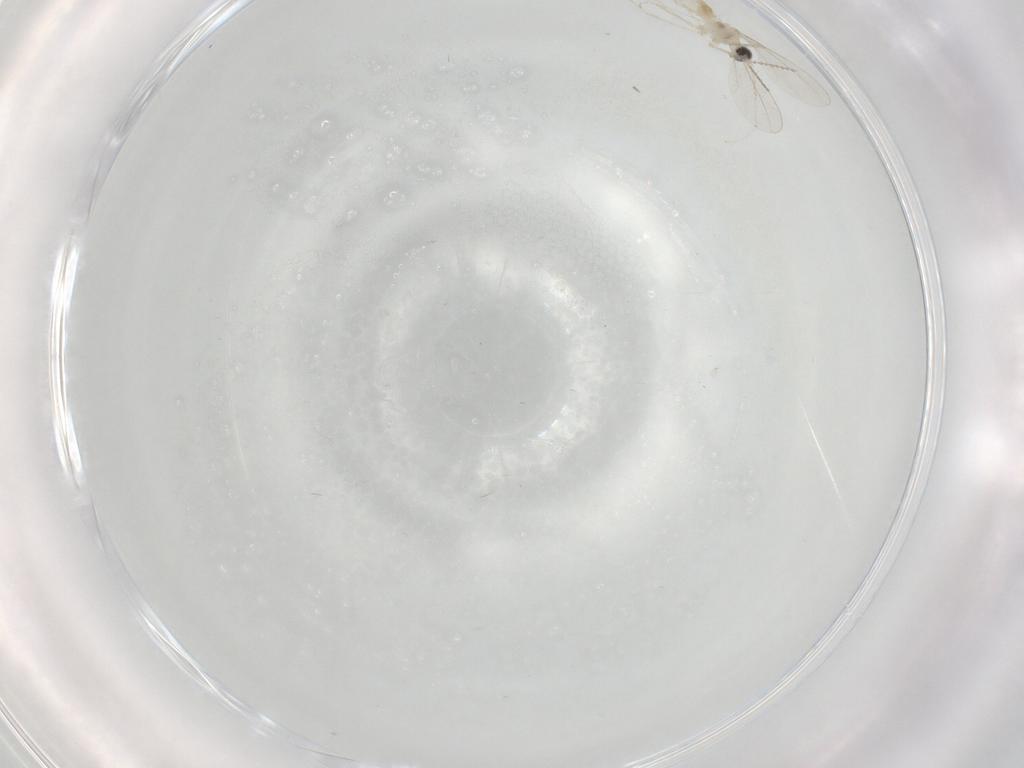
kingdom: Animalia
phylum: Arthropoda
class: Insecta
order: Diptera
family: Cecidomyiidae
